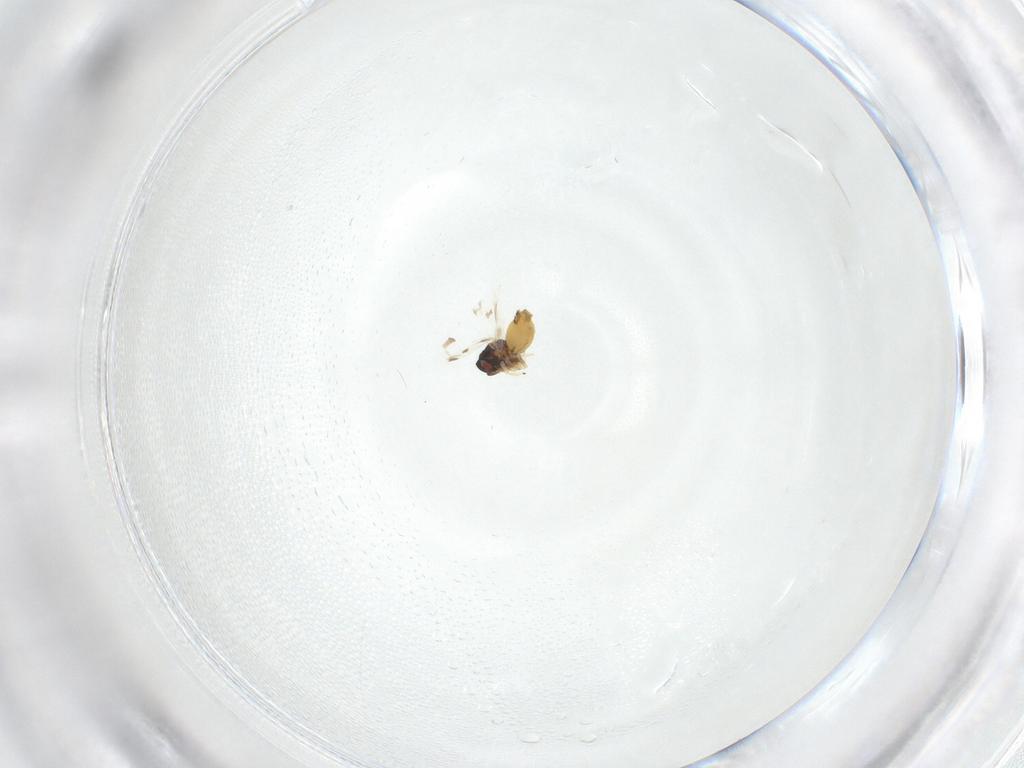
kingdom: Animalia
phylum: Arthropoda
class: Insecta
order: Hemiptera
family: Aleyrodidae
